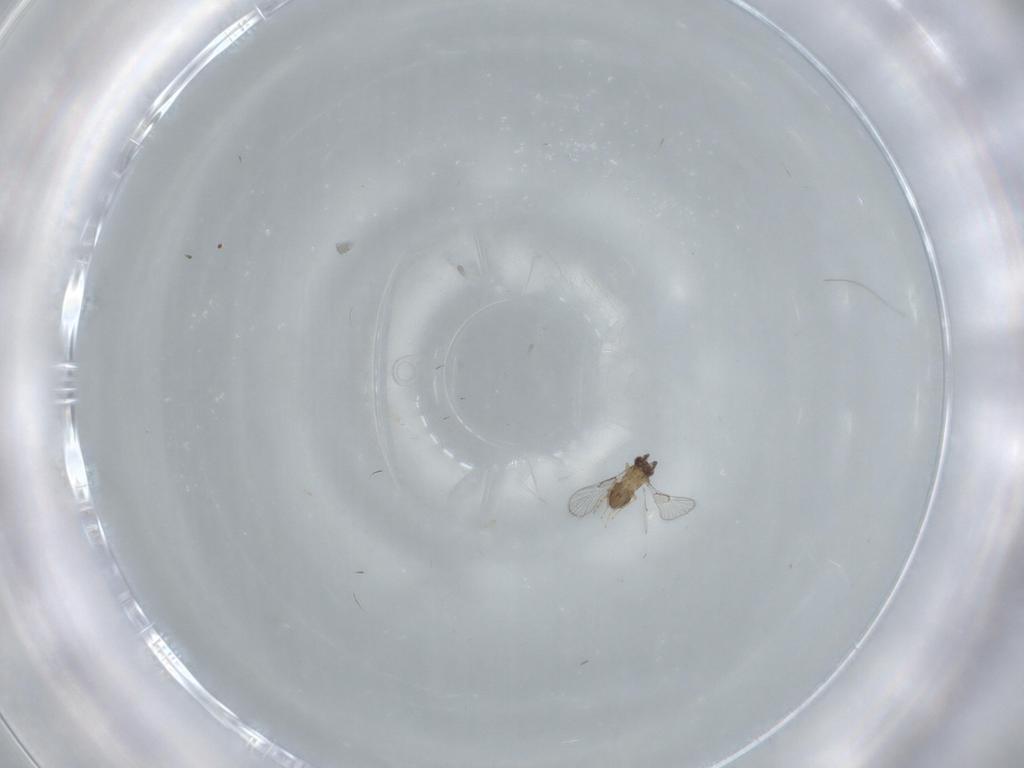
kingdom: Animalia
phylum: Arthropoda
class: Insecta
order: Hymenoptera
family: Trichogrammatidae
